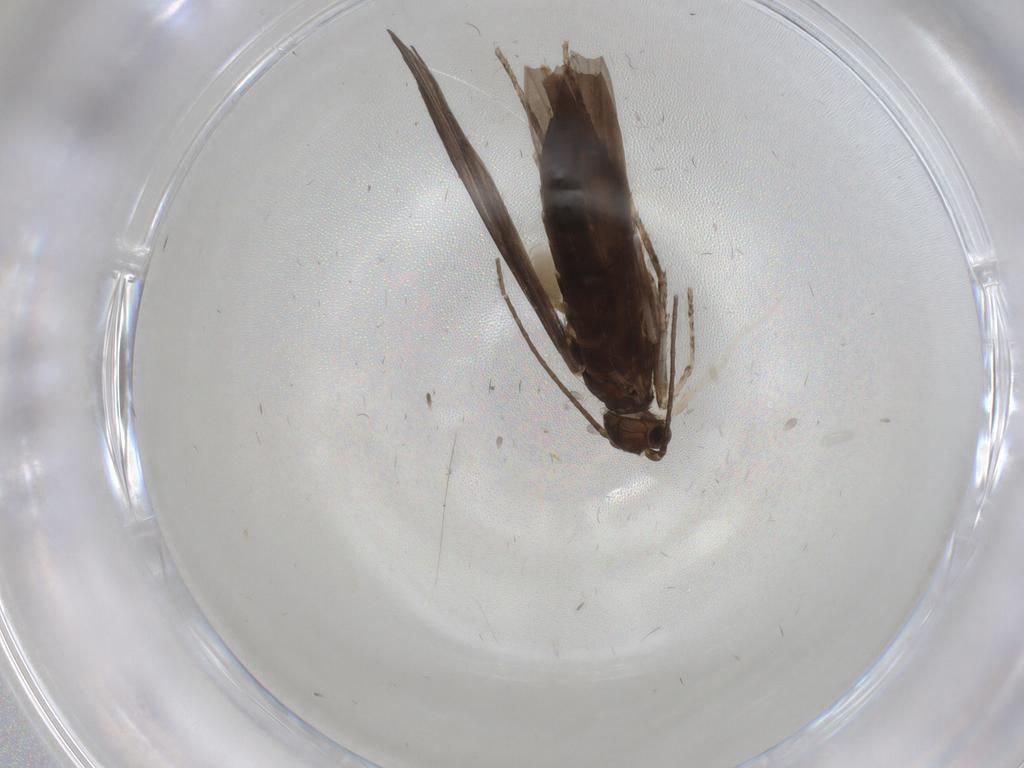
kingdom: Animalia
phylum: Arthropoda
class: Insecta
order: Trichoptera
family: Xiphocentronidae
